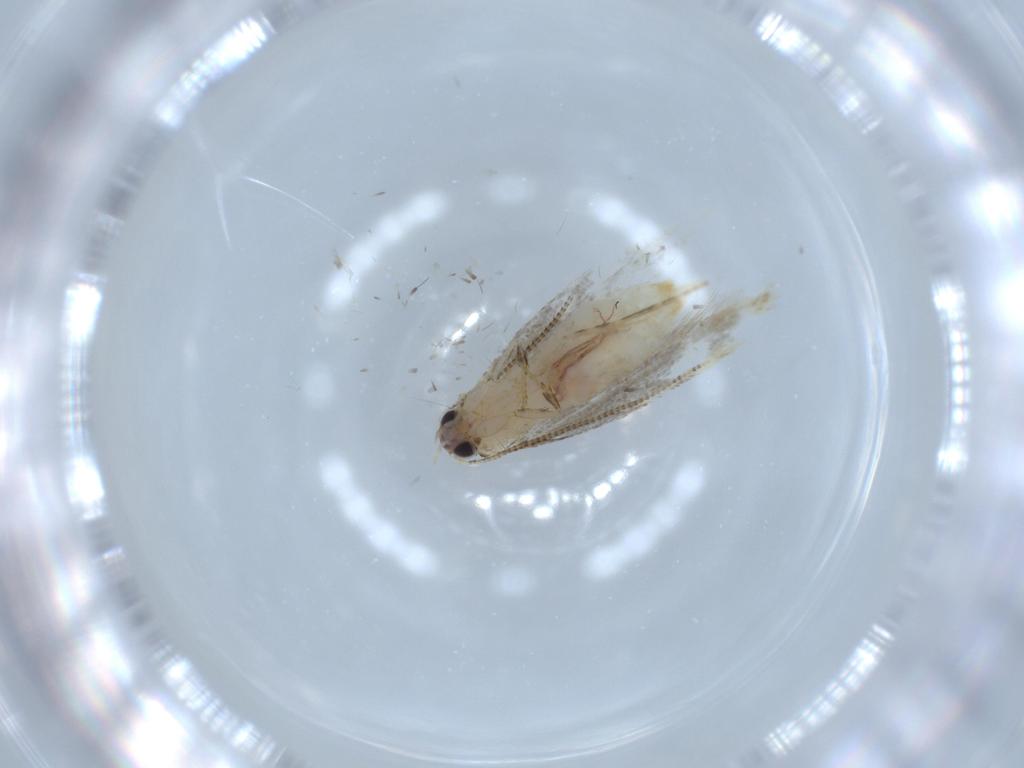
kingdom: Animalia
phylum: Arthropoda
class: Insecta
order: Lepidoptera
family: Tineidae
